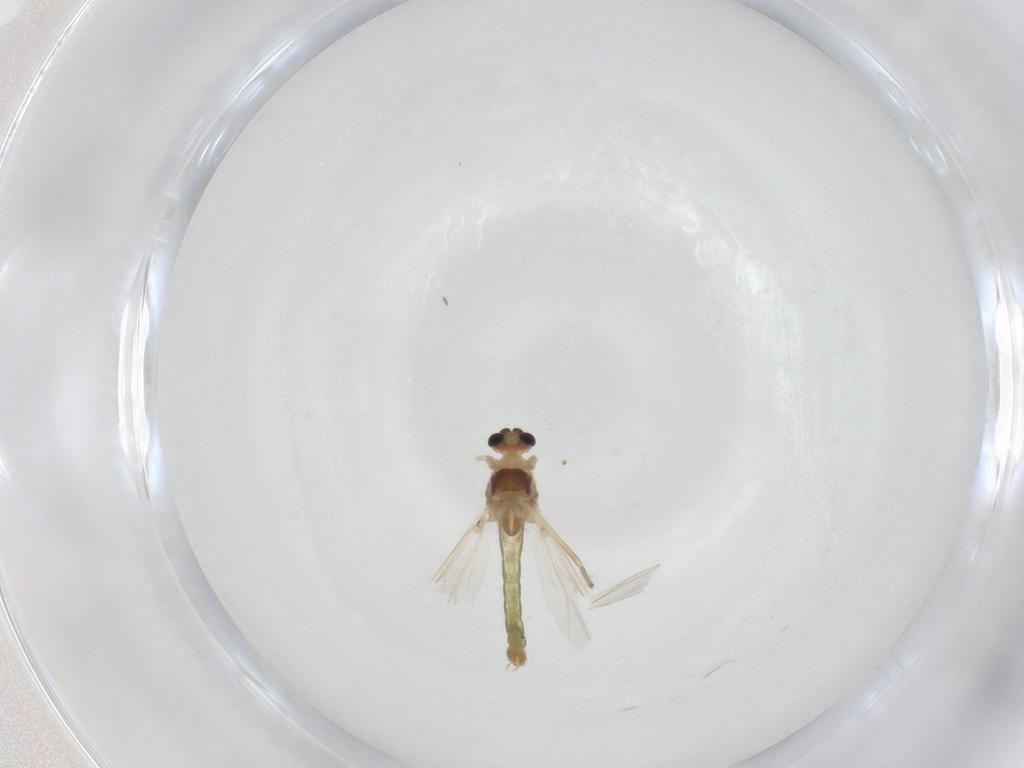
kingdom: Animalia
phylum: Arthropoda
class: Insecta
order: Diptera
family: Chironomidae
